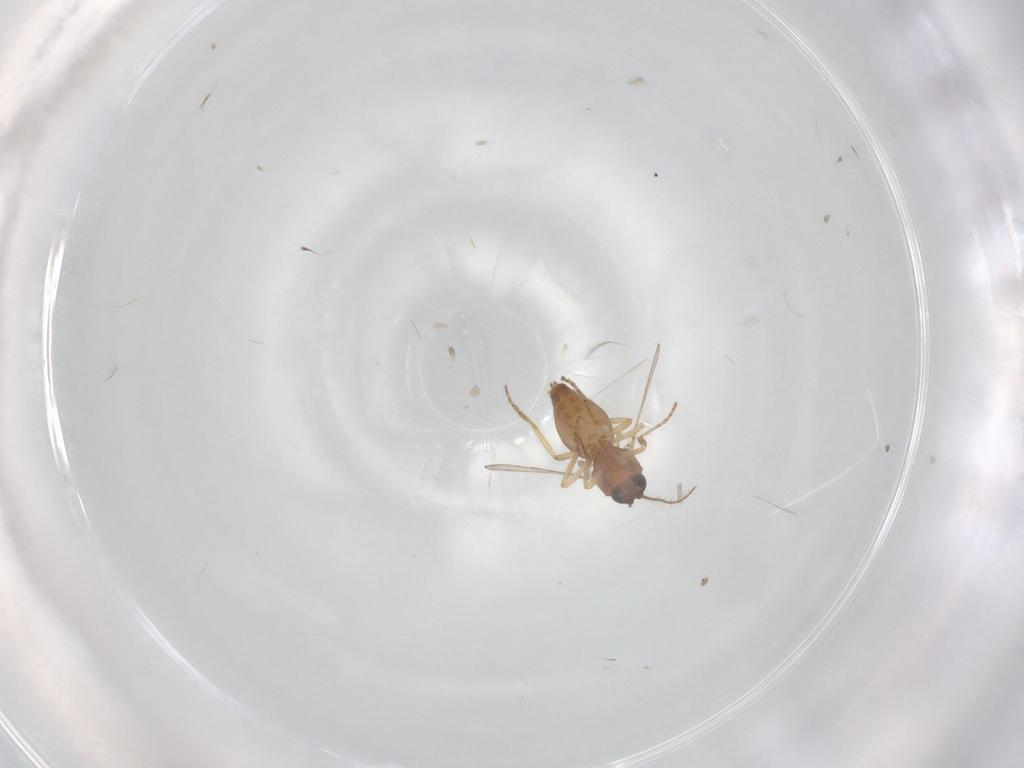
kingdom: Animalia
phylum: Arthropoda
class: Insecta
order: Diptera
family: Ceratopogonidae
